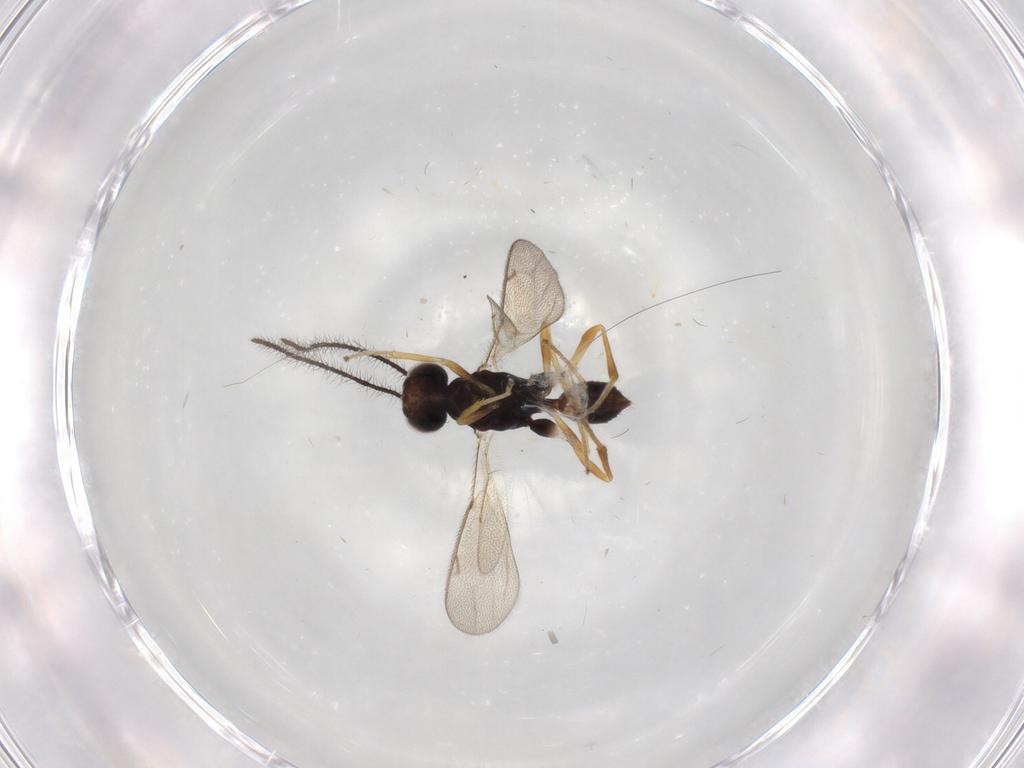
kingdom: Animalia
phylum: Arthropoda
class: Insecta
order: Hymenoptera
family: Diparidae
